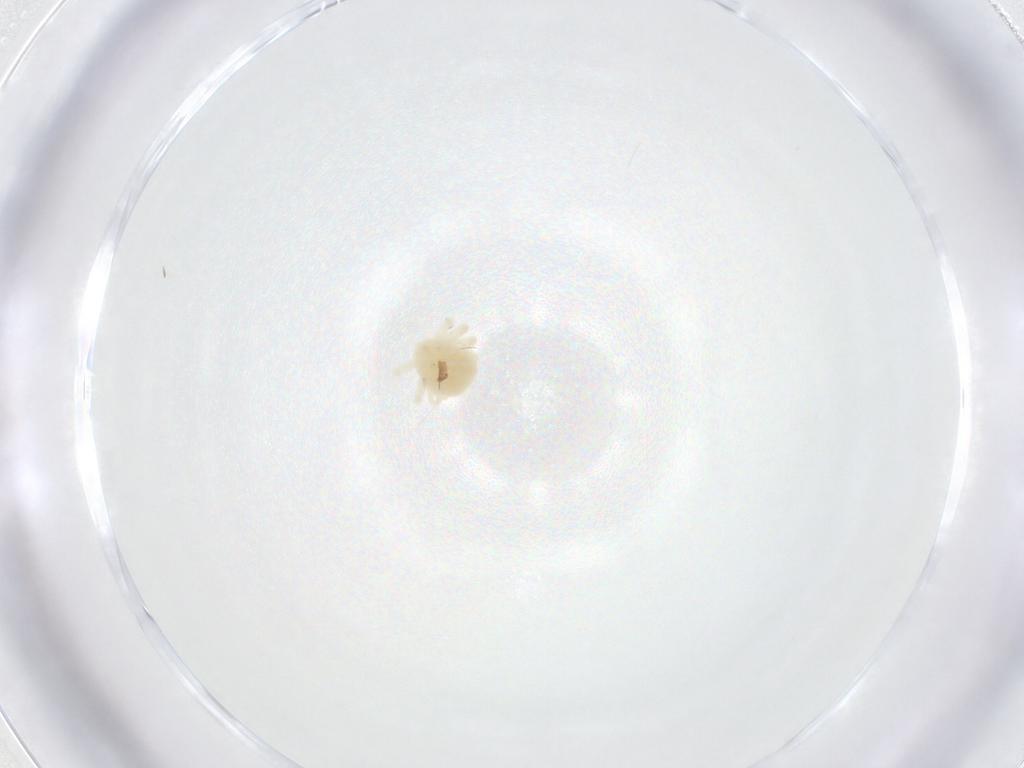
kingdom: Animalia
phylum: Arthropoda
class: Arachnida
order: Trombidiformes
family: Anystidae
